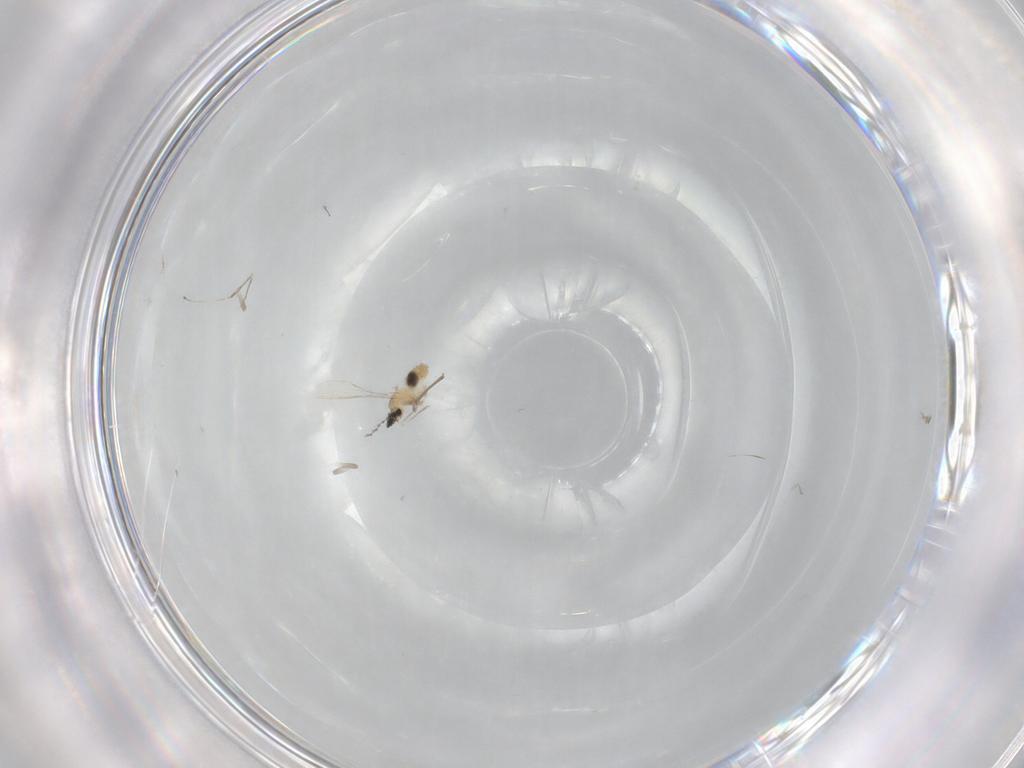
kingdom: Animalia
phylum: Arthropoda
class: Insecta
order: Diptera
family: Cecidomyiidae
